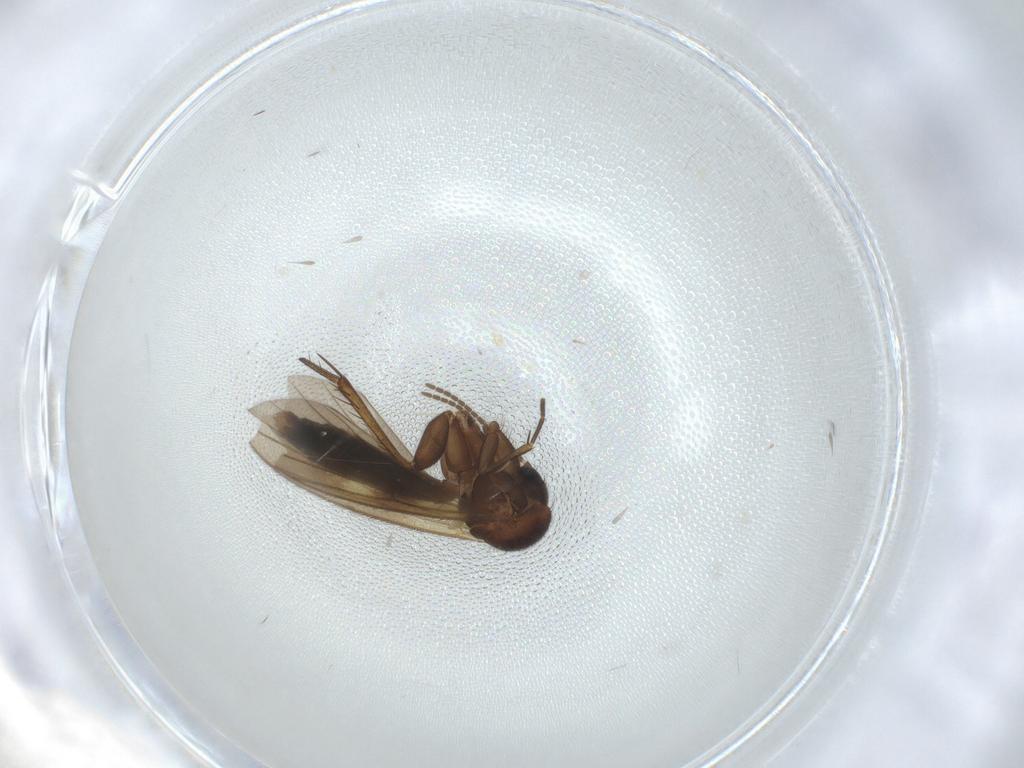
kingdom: Animalia
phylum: Arthropoda
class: Insecta
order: Diptera
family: Mycetophilidae
